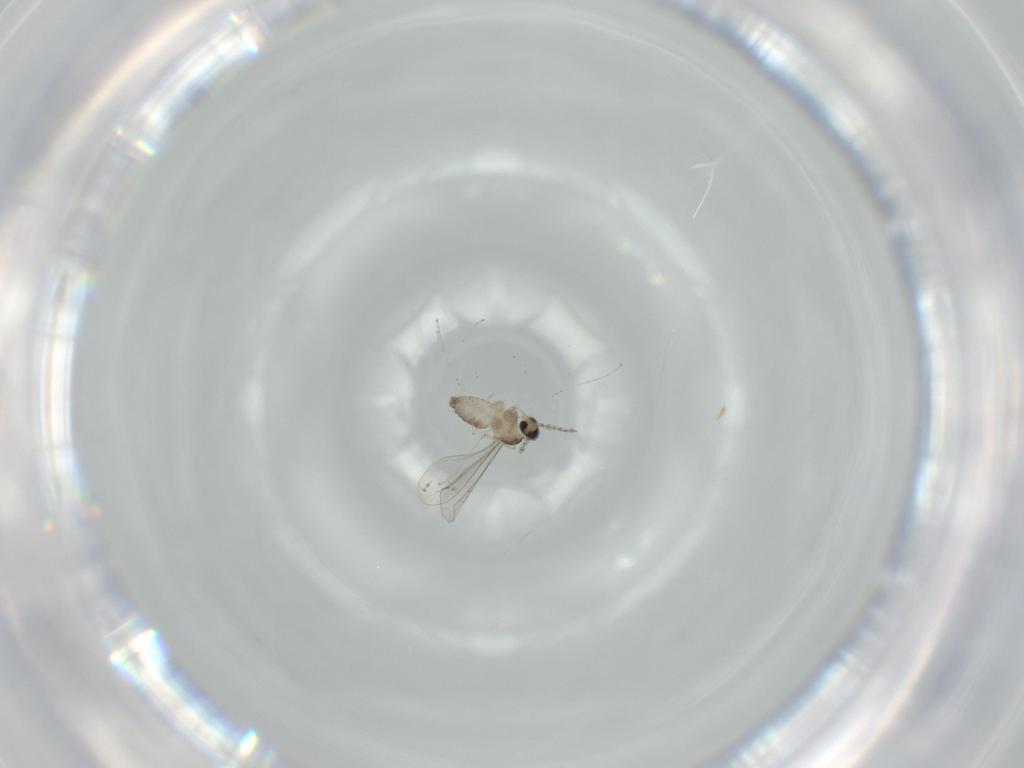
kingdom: Animalia
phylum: Arthropoda
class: Insecta
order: Diptera
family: Cecidomyiidae
